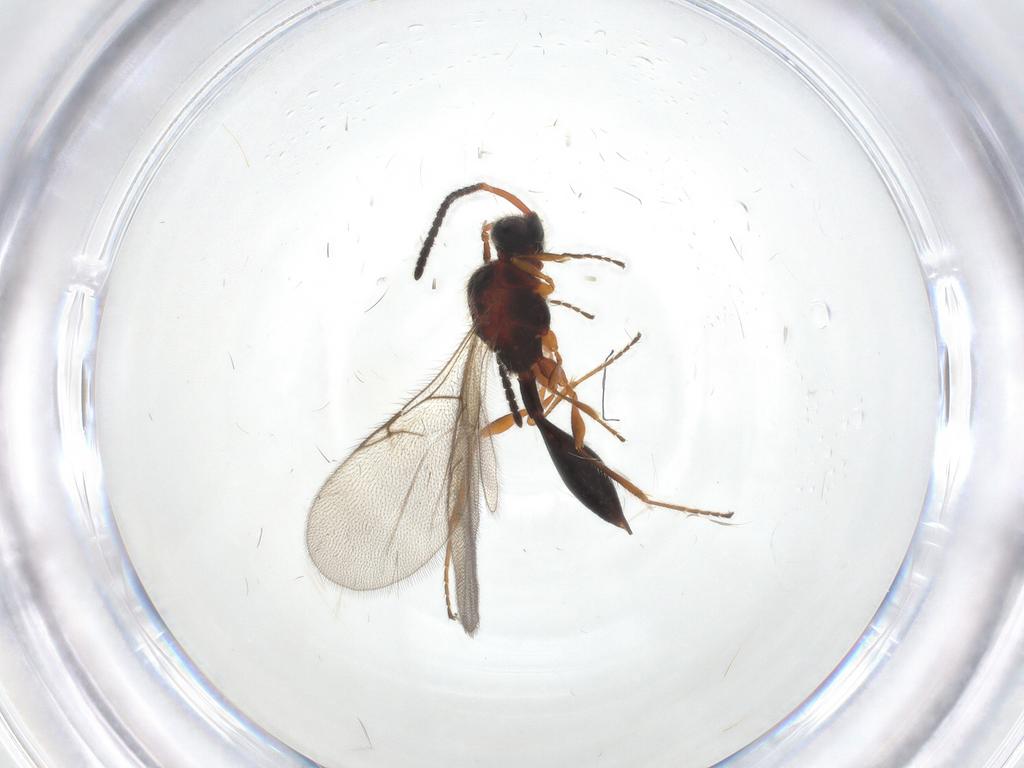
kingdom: Animalia
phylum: Arthropoda
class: Insecta
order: Hymenoptera
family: Diapriidae
